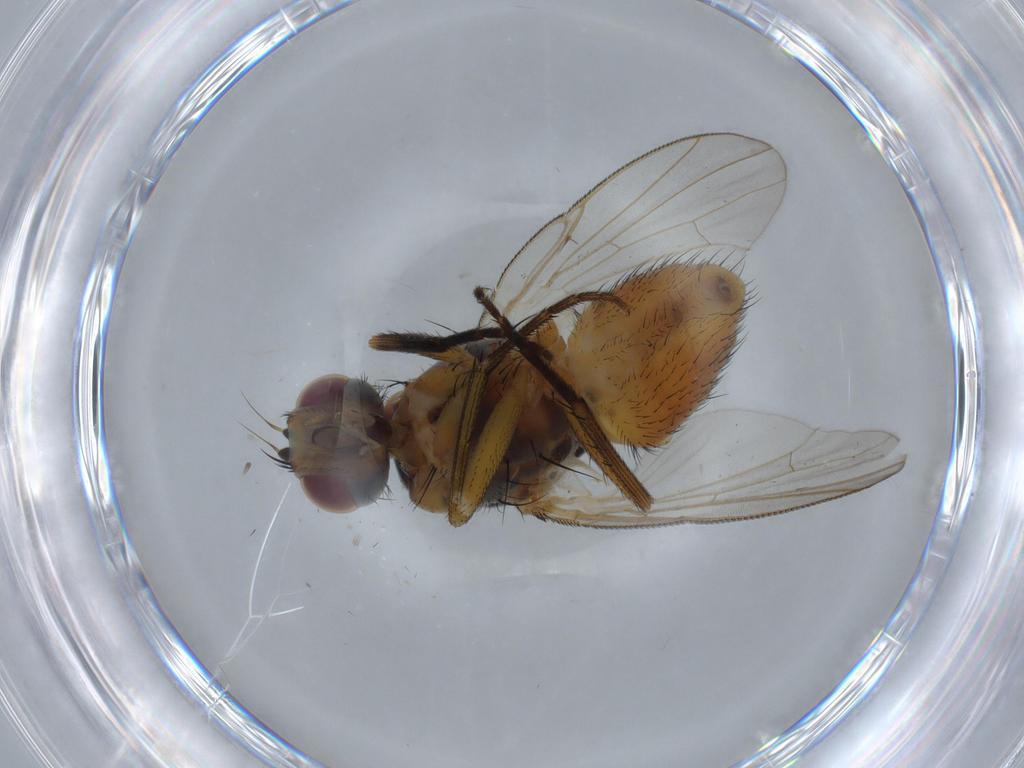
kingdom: Animalia
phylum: Arthropoda
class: Insecta
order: Diptera
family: Muscidae
